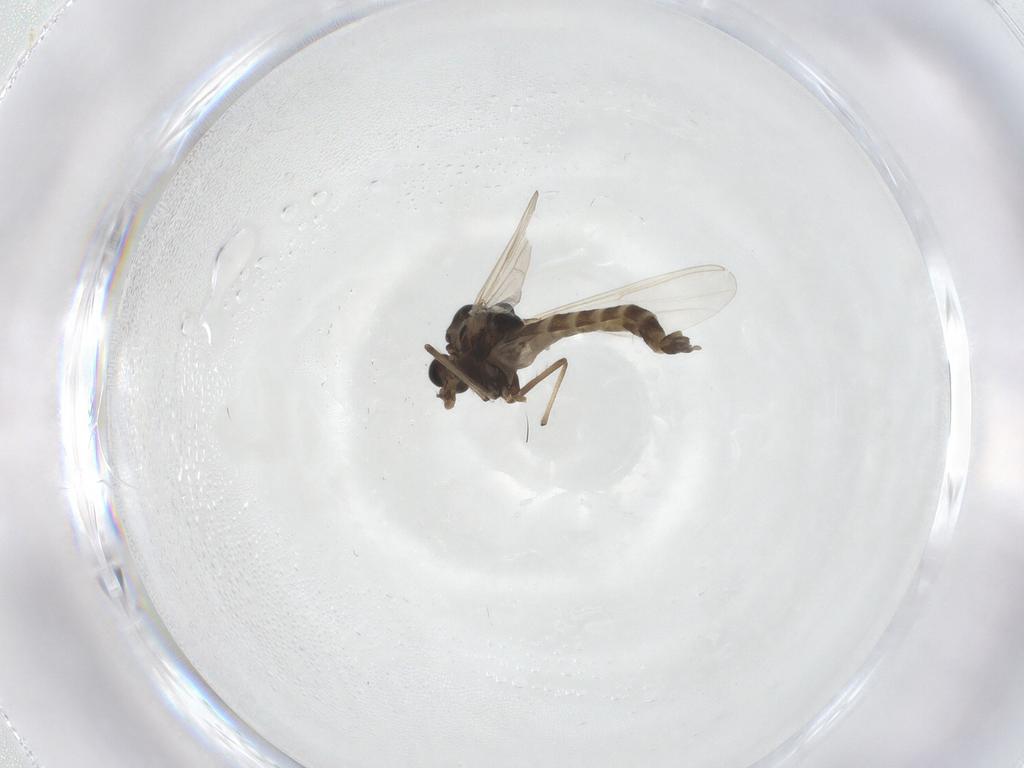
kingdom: Animalia
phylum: Arthropoda
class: Insecta
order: Diptera
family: Chironomidae
